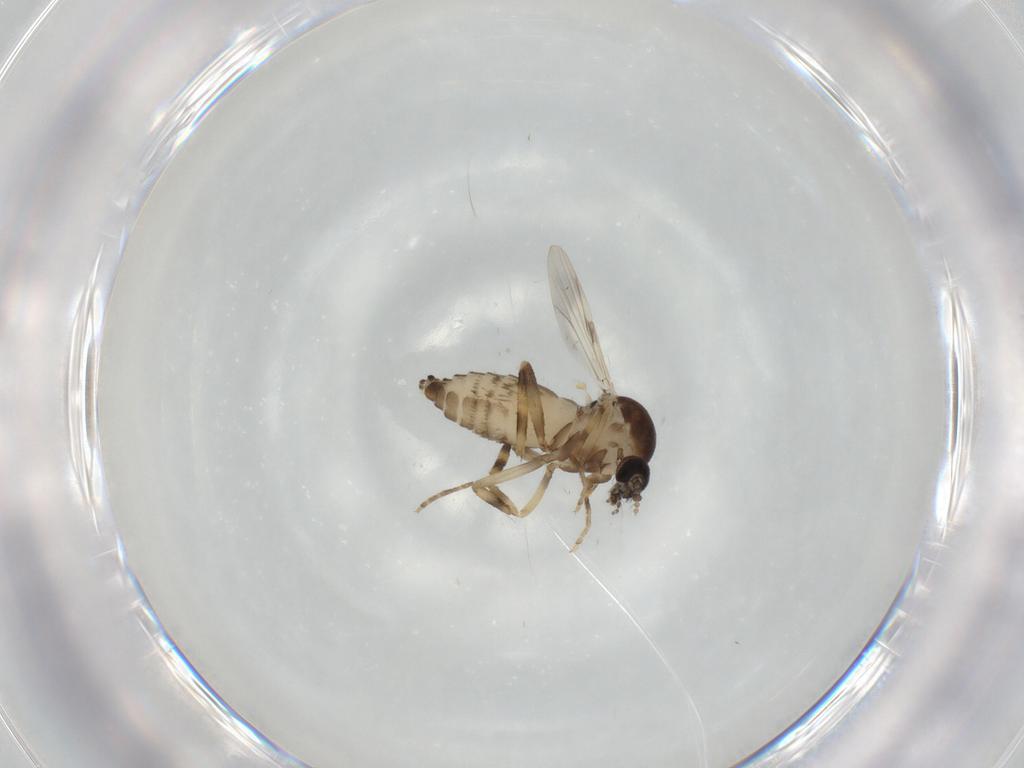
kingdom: Animalia
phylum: Arthropoda
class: Insecta
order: Diptera
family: Ceratopogonidae
